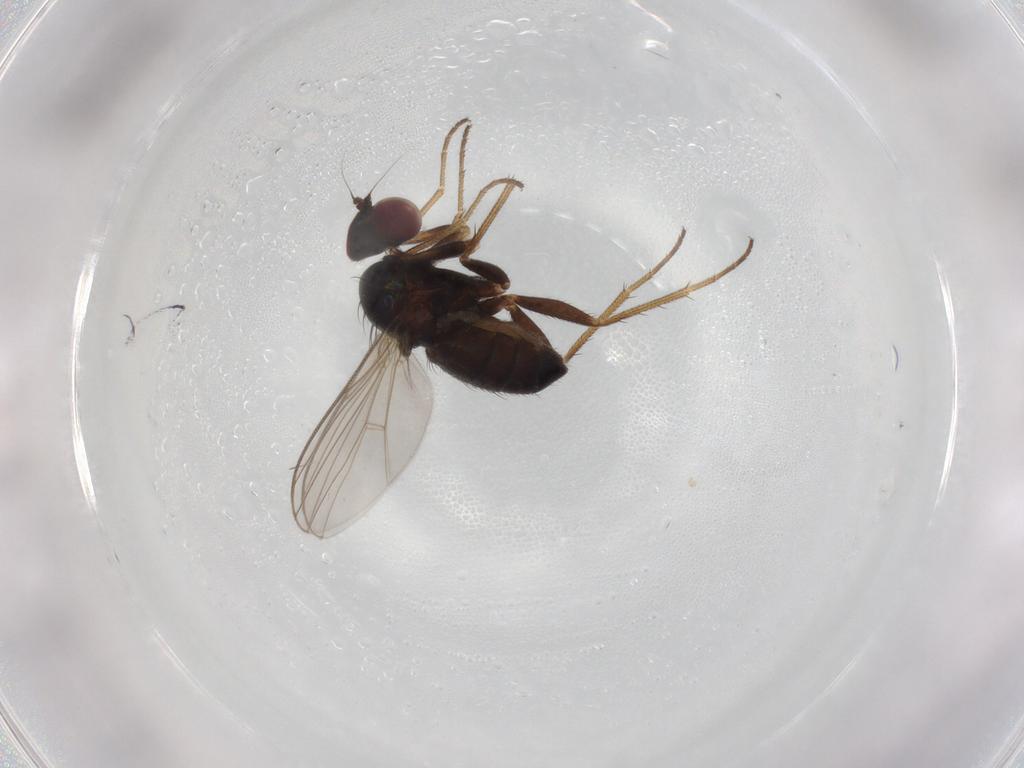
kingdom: Animalia
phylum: Arthropoda
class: Insecta
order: Diptera
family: Dolichopodidae
